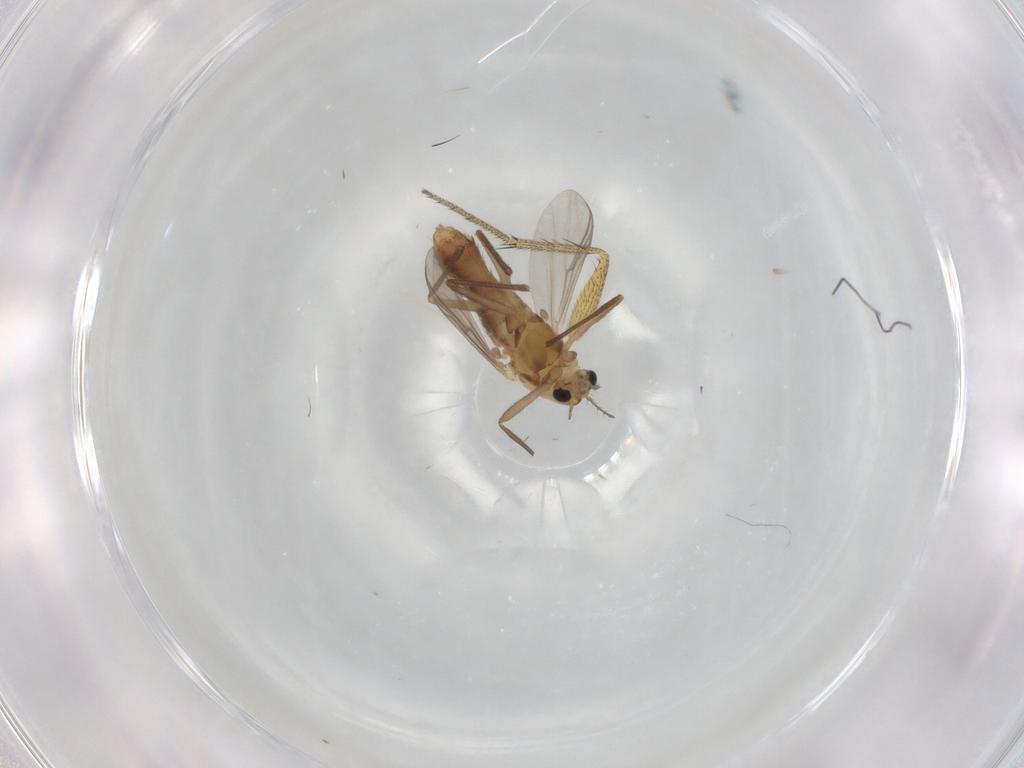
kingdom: Animalia
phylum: Arthropoda
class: Insecta
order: Diptera
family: Chironomidae
